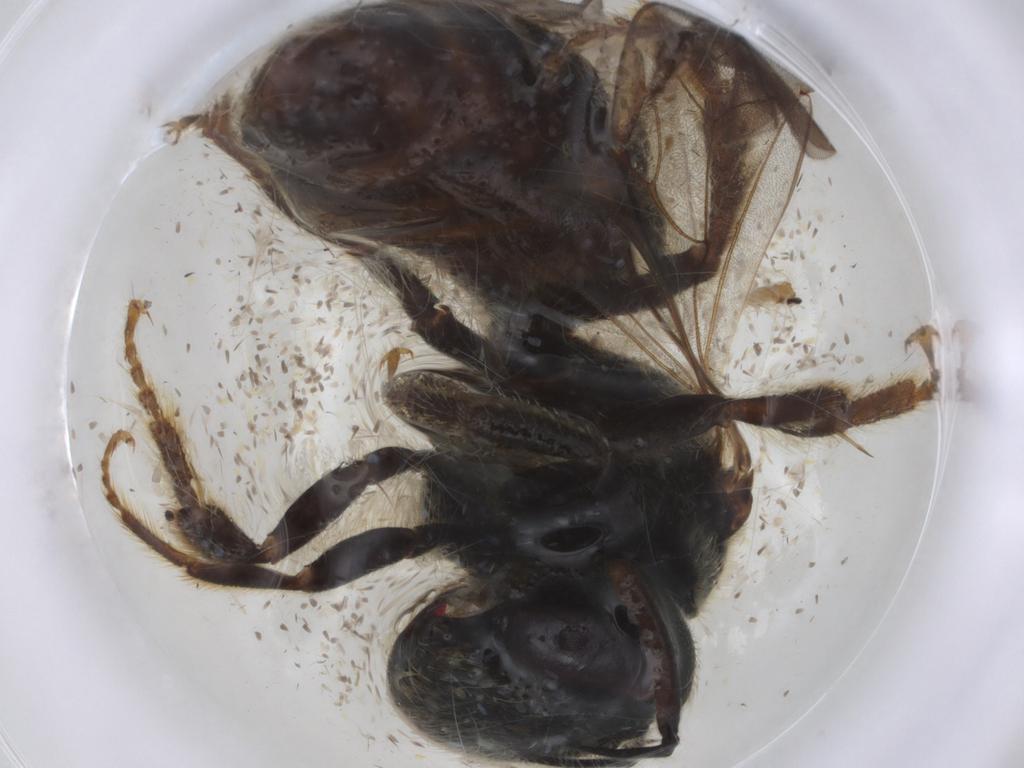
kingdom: Animalia
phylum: Arthropoda
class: Insecta
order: Hymenoptera
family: Halictidae
